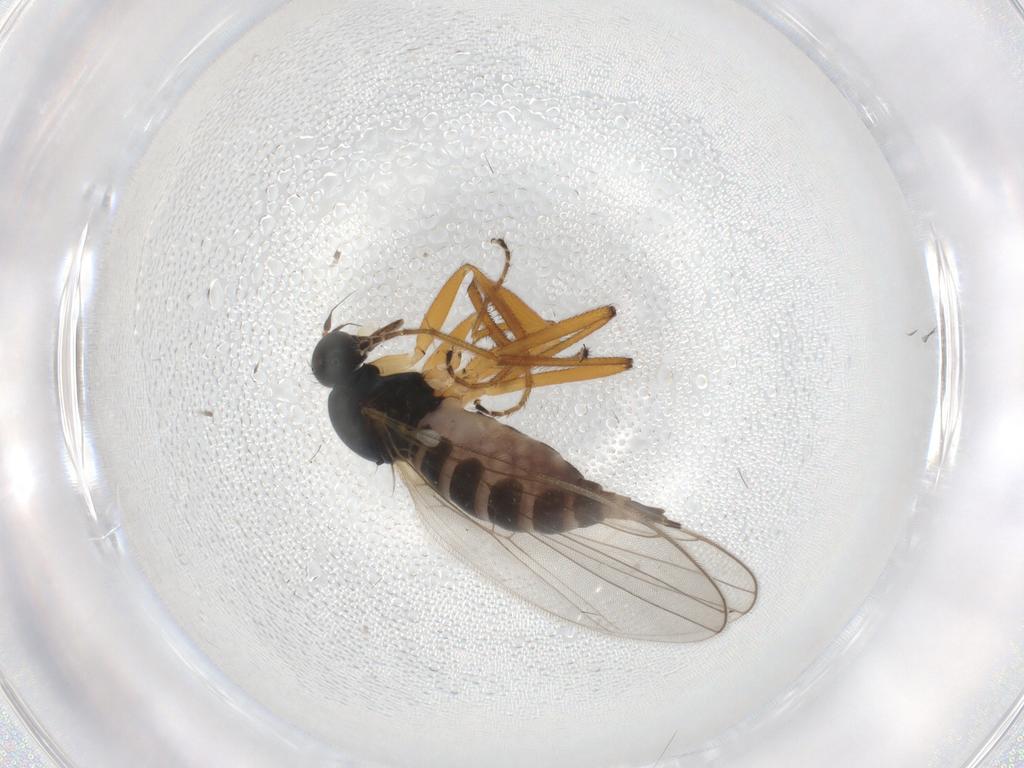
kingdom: Animalia
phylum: Arthropoda
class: Insecta
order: Diptera
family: Hybotidae
